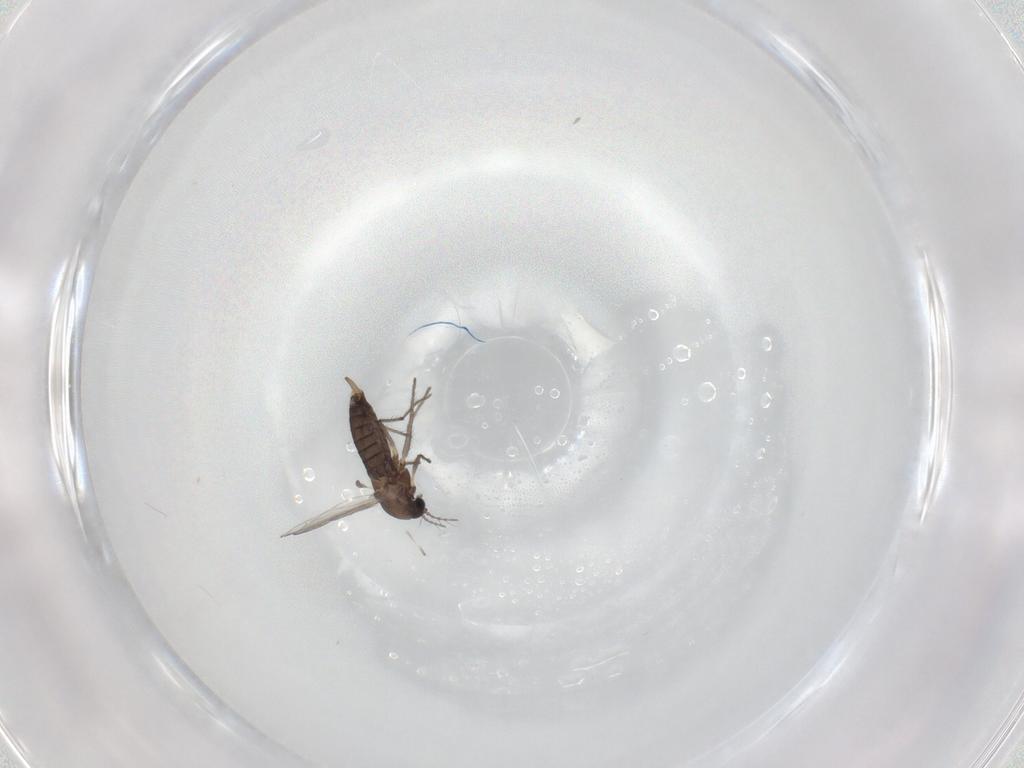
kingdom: Animalia
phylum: Arthropoda
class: Insecta
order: Diptera
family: Chironomidae
